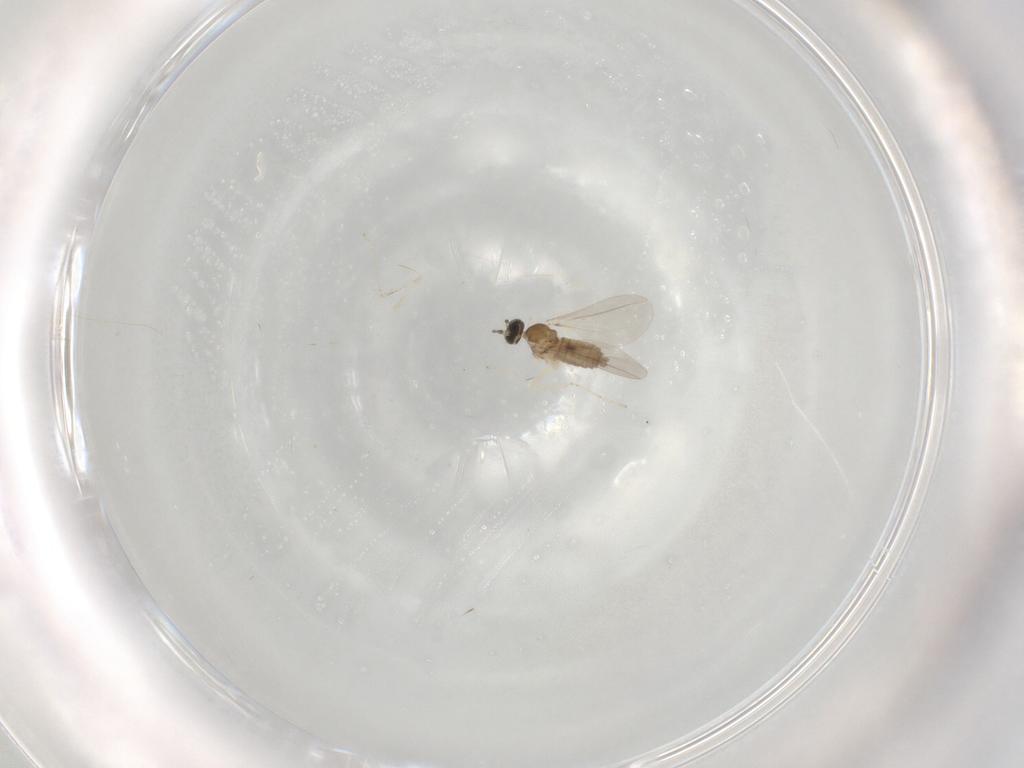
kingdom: Animalia
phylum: Arthropoda
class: Insecta
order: Diptera
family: Cecidomyiidae
